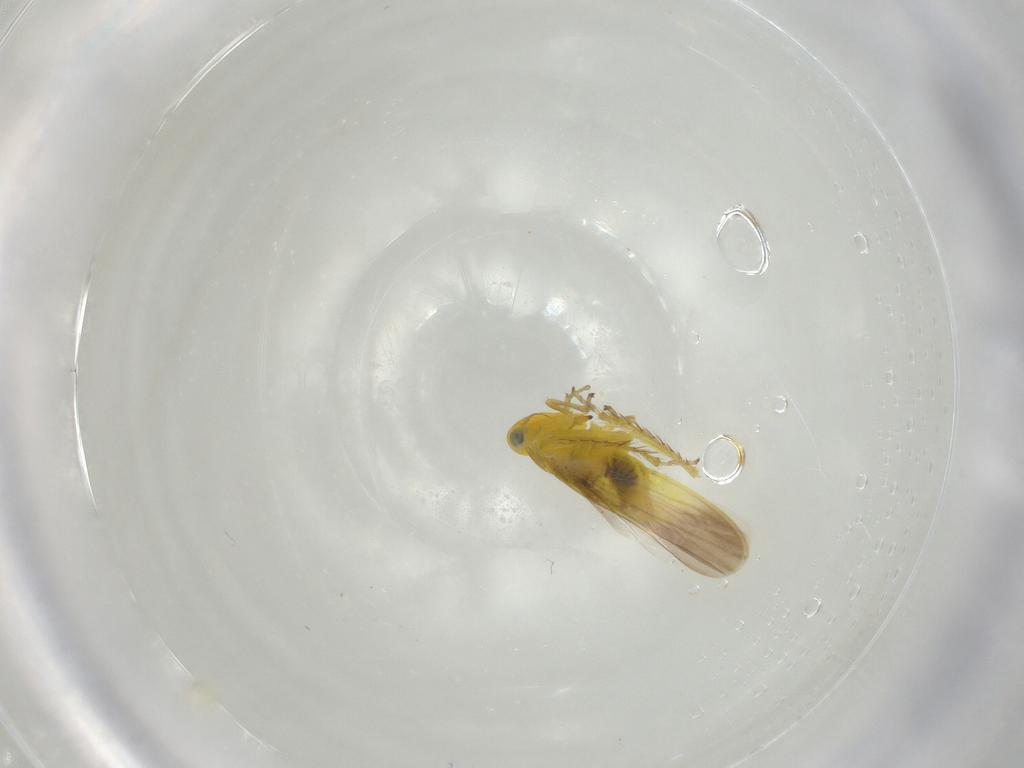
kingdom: Animalia
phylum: Arthropoda
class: Insecta
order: Hemiptera
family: Cicadellidae
